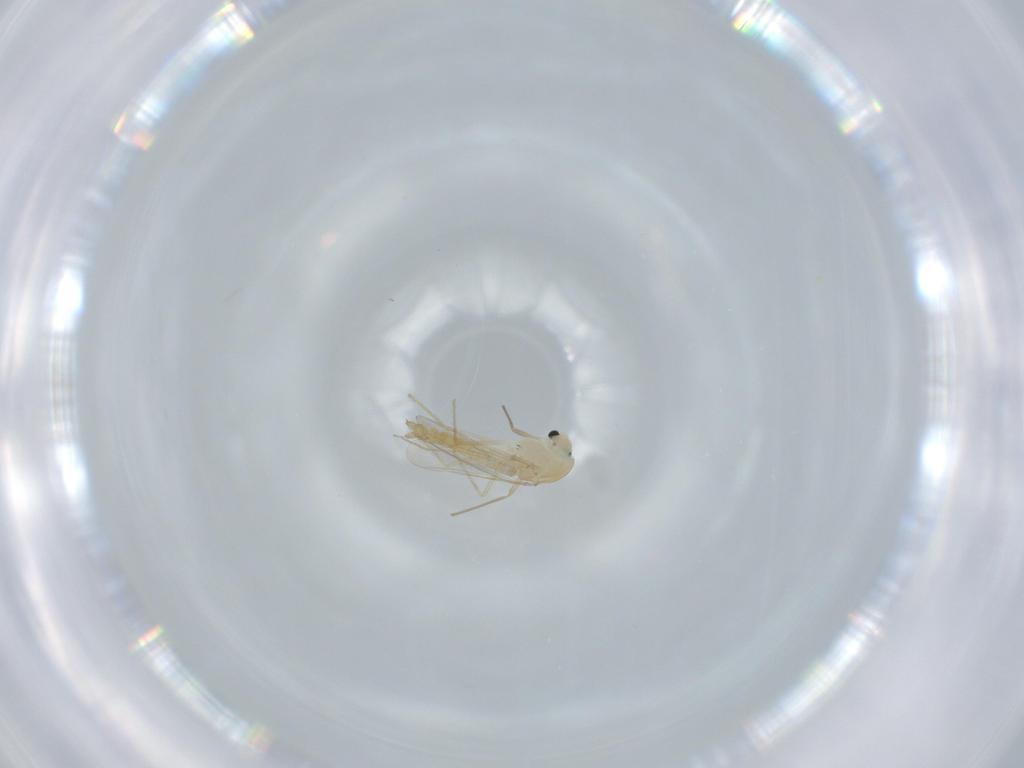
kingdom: Animalia
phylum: Arthropoda
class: Insecta
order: Diptera
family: Chironomidae
